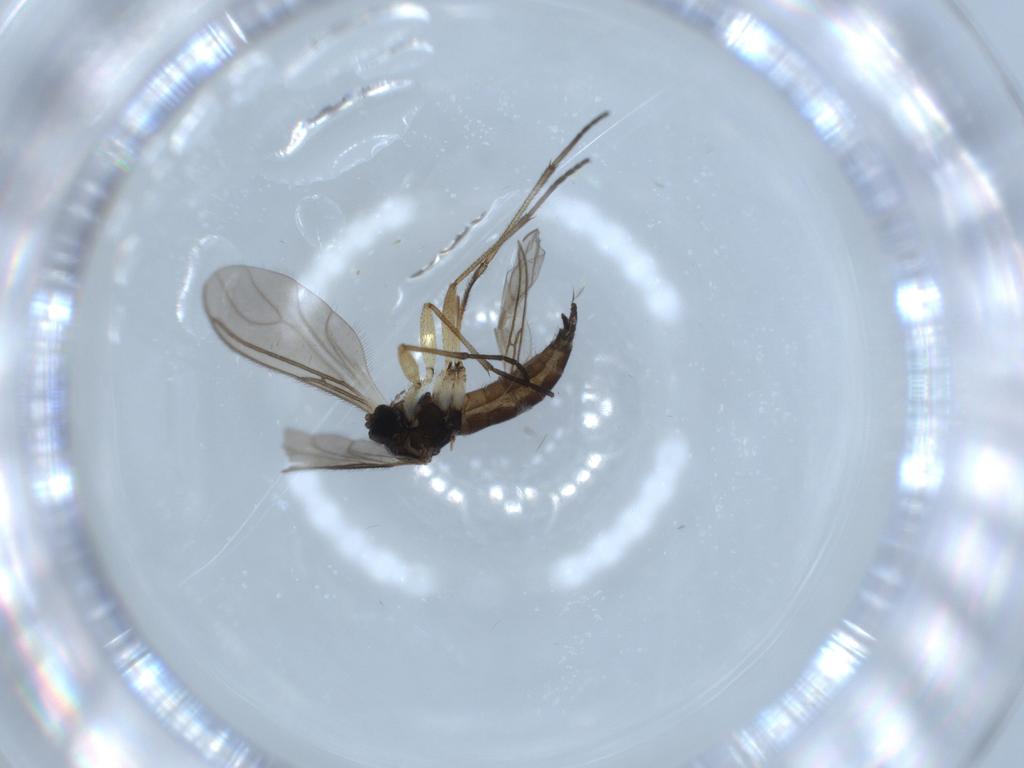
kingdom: Animalia
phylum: Arthropoda
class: Insecta
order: Diptera
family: Sciaridae
